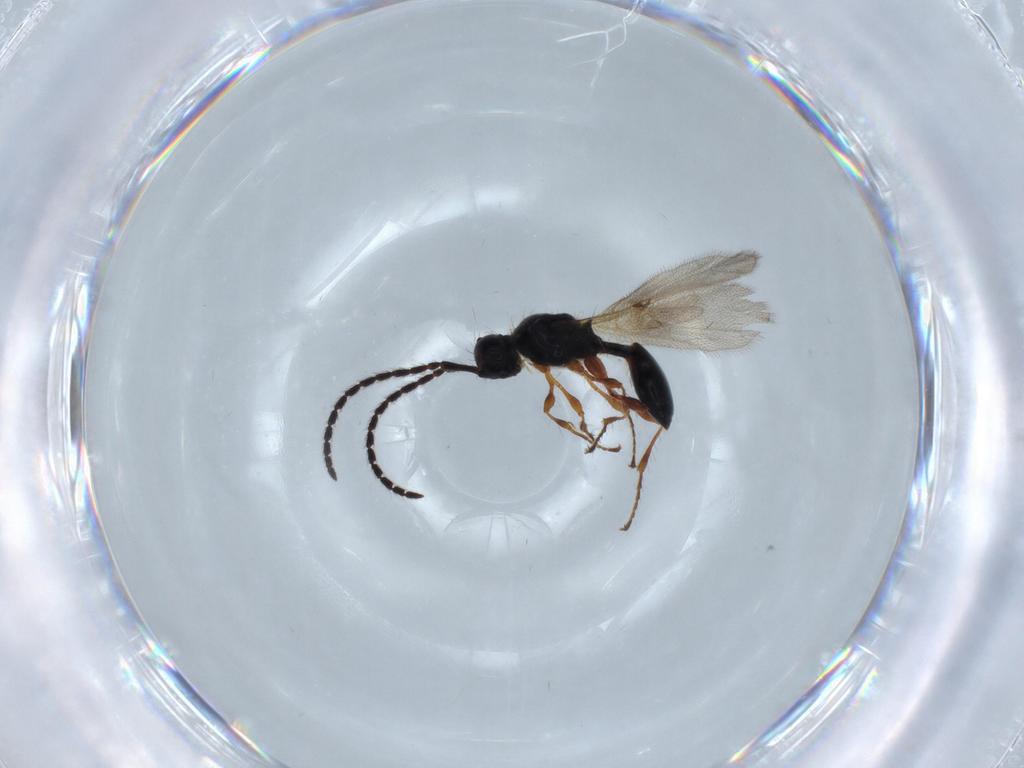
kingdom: Animalia
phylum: Arthropoda
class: Insecta
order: Hymenoptera
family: Diapriidae
